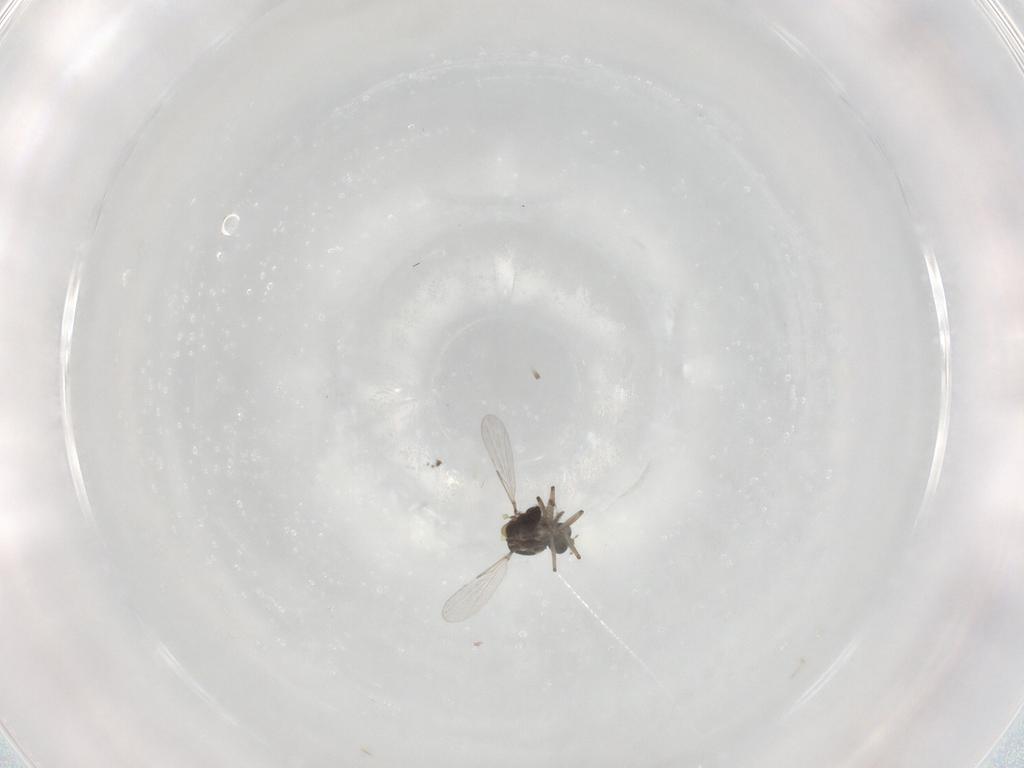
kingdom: Animalia
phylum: Arthropoda
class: Insecta
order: Diptera
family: Ceratopogonidae
